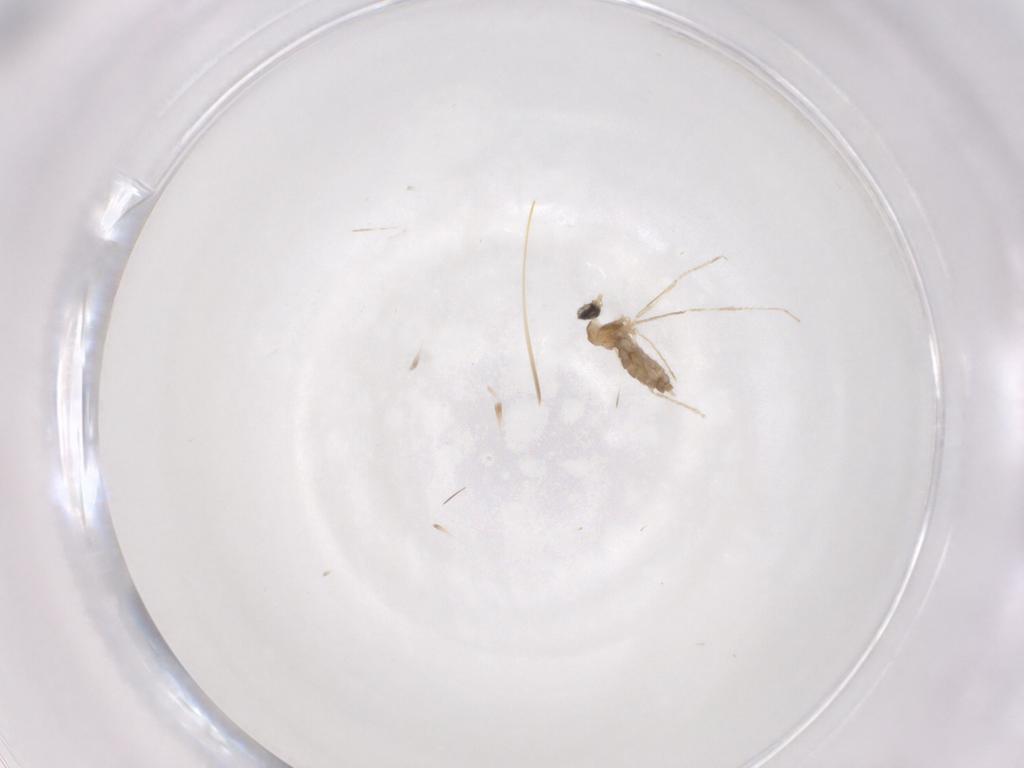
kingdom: Animalia
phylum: Arthropoda
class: Insecta
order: Diptera
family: Cecidomyiidae
